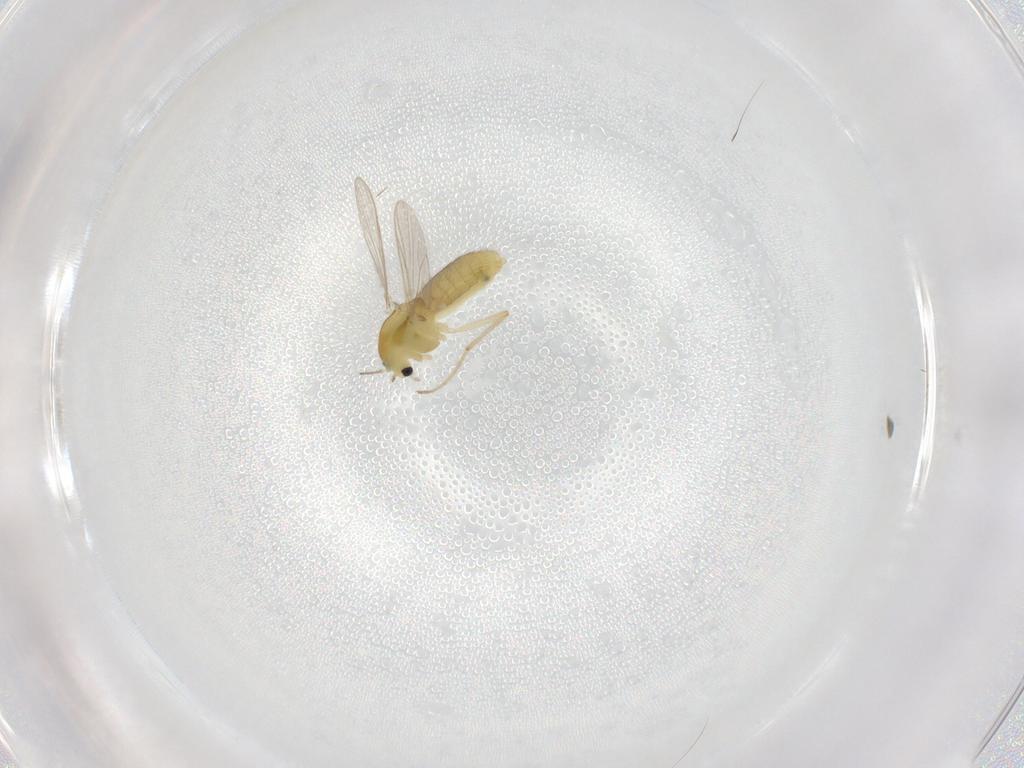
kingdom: Animalia
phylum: Arthropoda
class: Insecta
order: Diptera
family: Chironomidae
